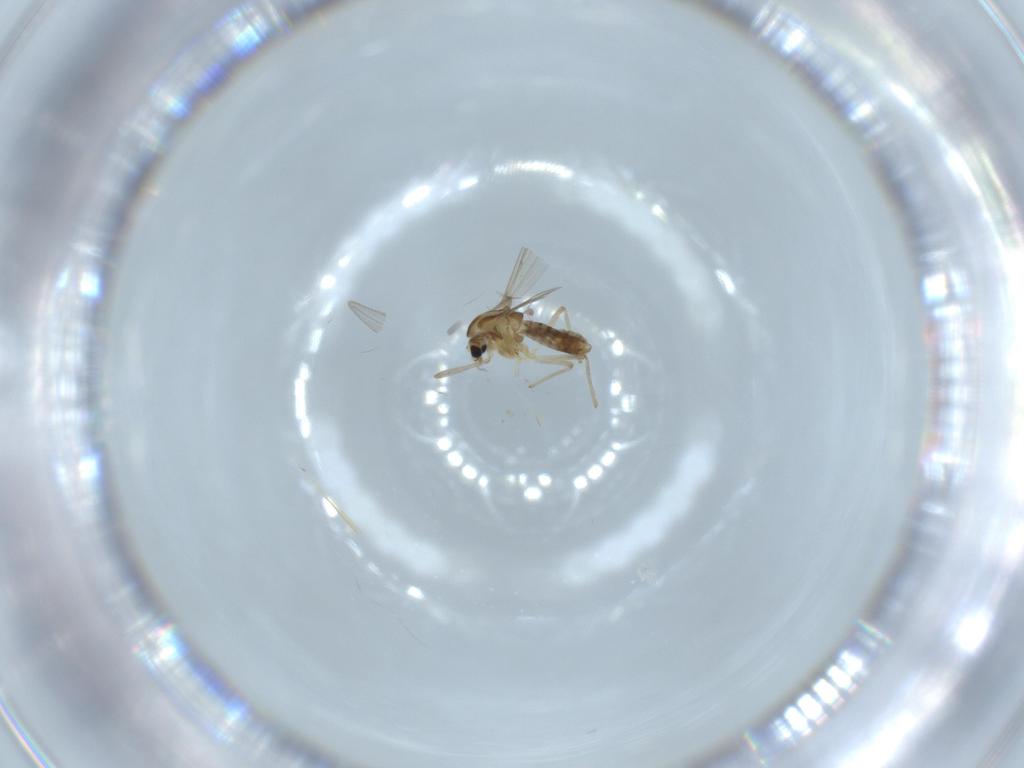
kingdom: Animalia
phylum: Arthropoda
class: Insecta
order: Diptera
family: Chironomidae
